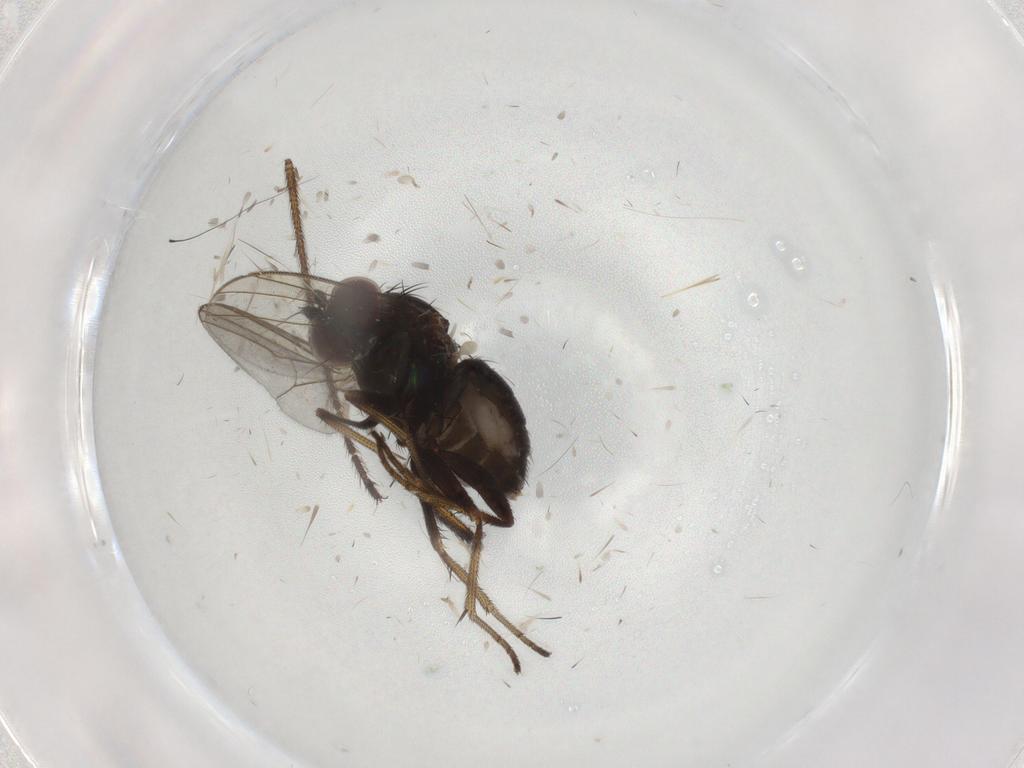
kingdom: Animalia
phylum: Arthropoda
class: Insecta
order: Diptera
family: Dolichopodidae
